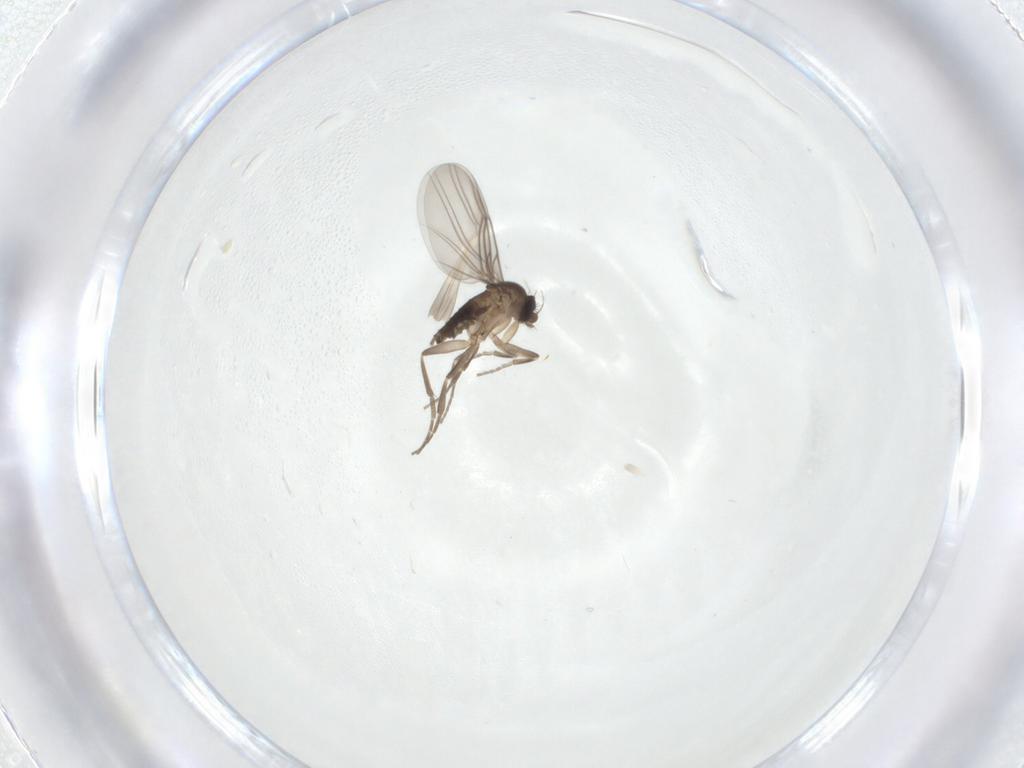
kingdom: Animalia
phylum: Arthropoda
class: Insecta
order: Diptera
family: Phoridae
